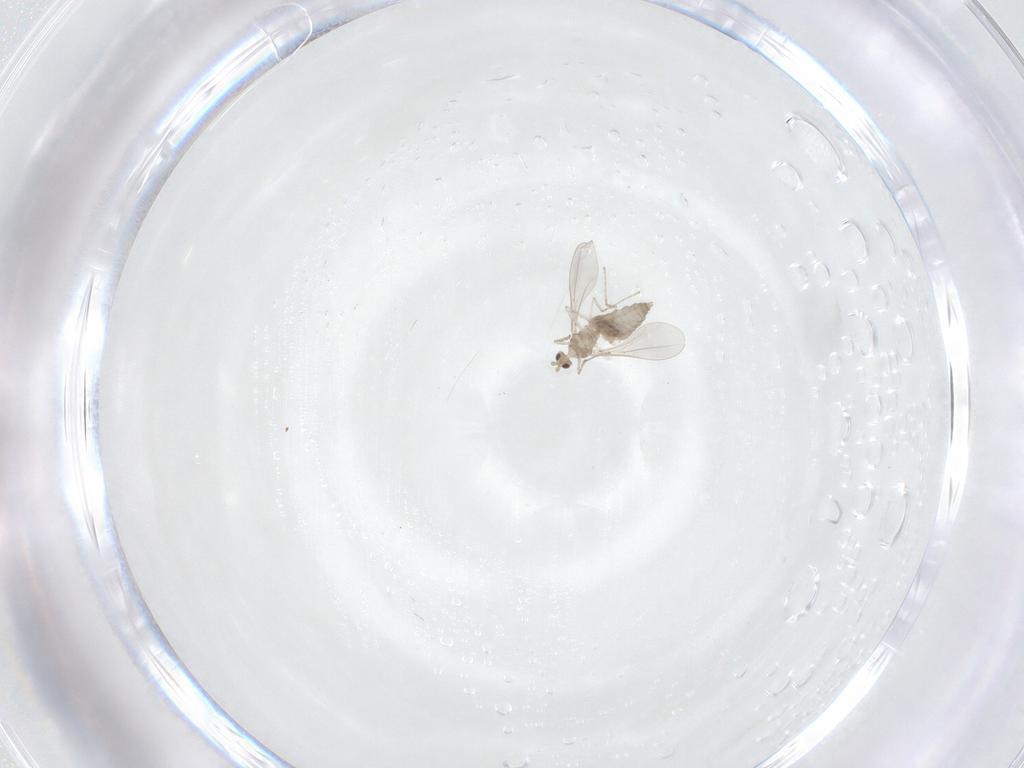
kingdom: Animalia
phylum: Arthropoda
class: Insecta
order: Diptera
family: Cecidomyiidae
